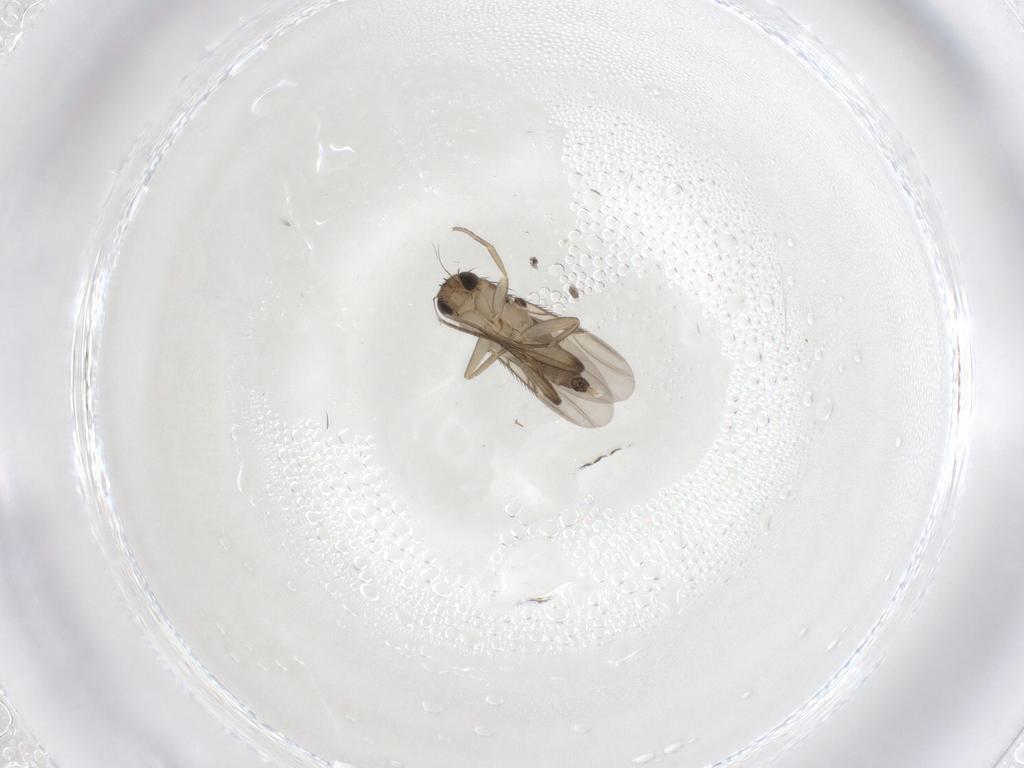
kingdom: Animalia
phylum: Arthropoda
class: Insecta
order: Diptera
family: Phoridae
